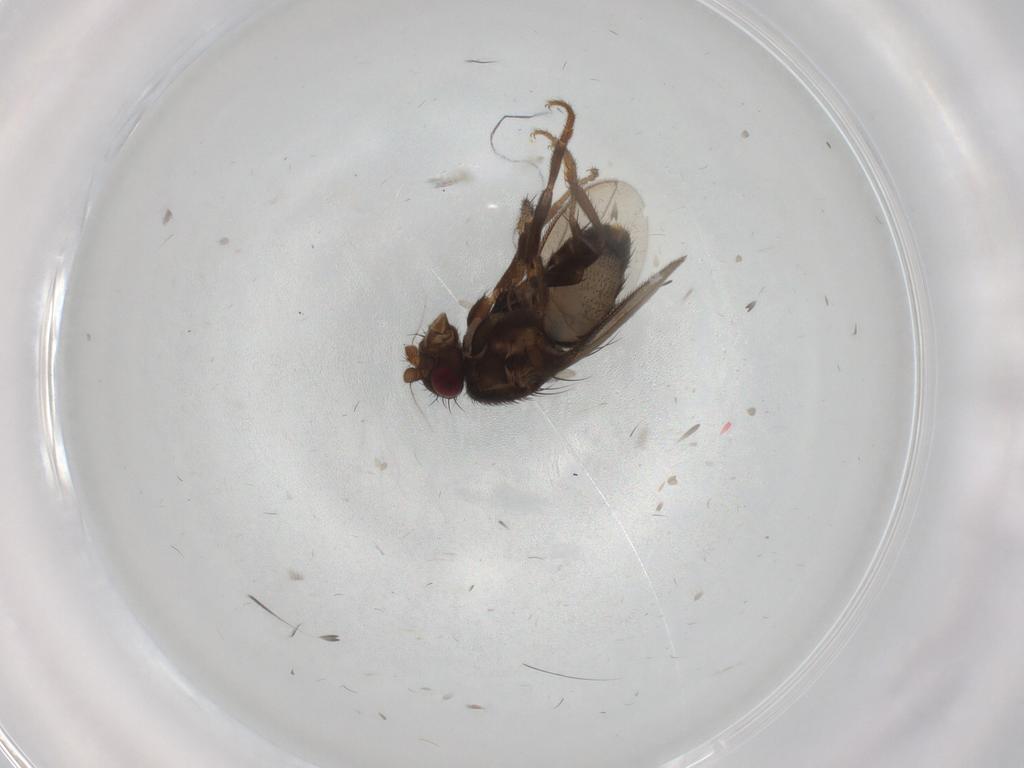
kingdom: Animalia
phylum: Arthropoda
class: Insecta
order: Diptera
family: Sphaeroceridae
